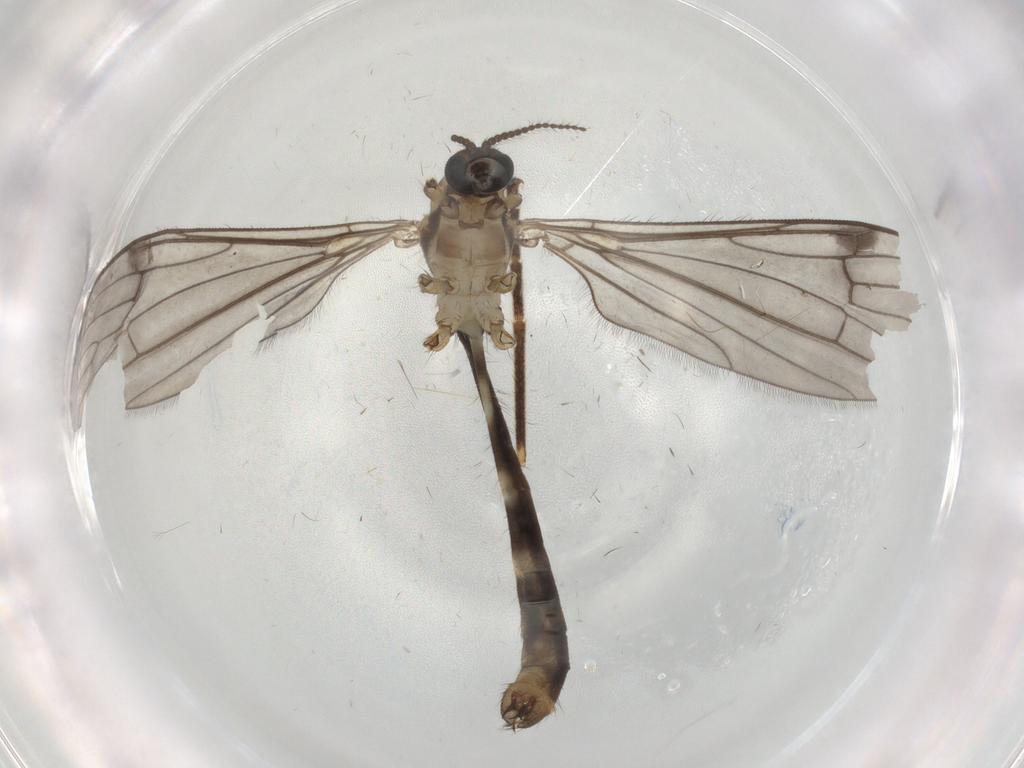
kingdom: Animalia
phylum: Arthropoda
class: Insecta
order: Diptera
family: Limoniidae
